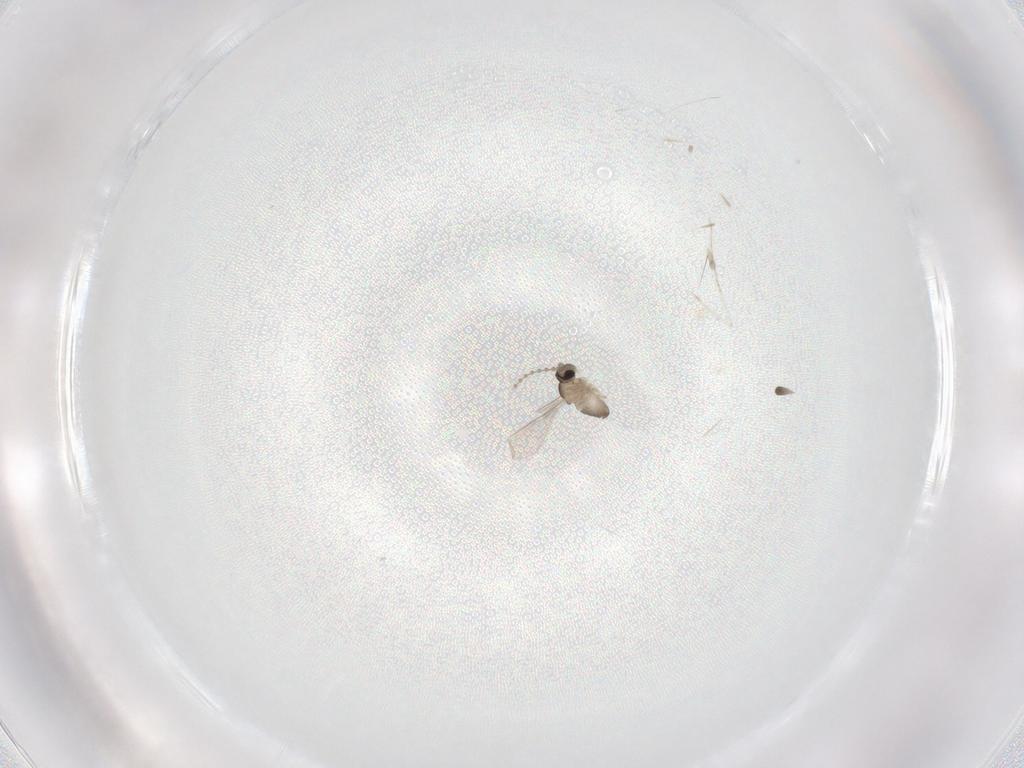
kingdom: Animalia
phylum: Arthropoda
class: Insecta
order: Diptera
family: Cecidomyiidae
